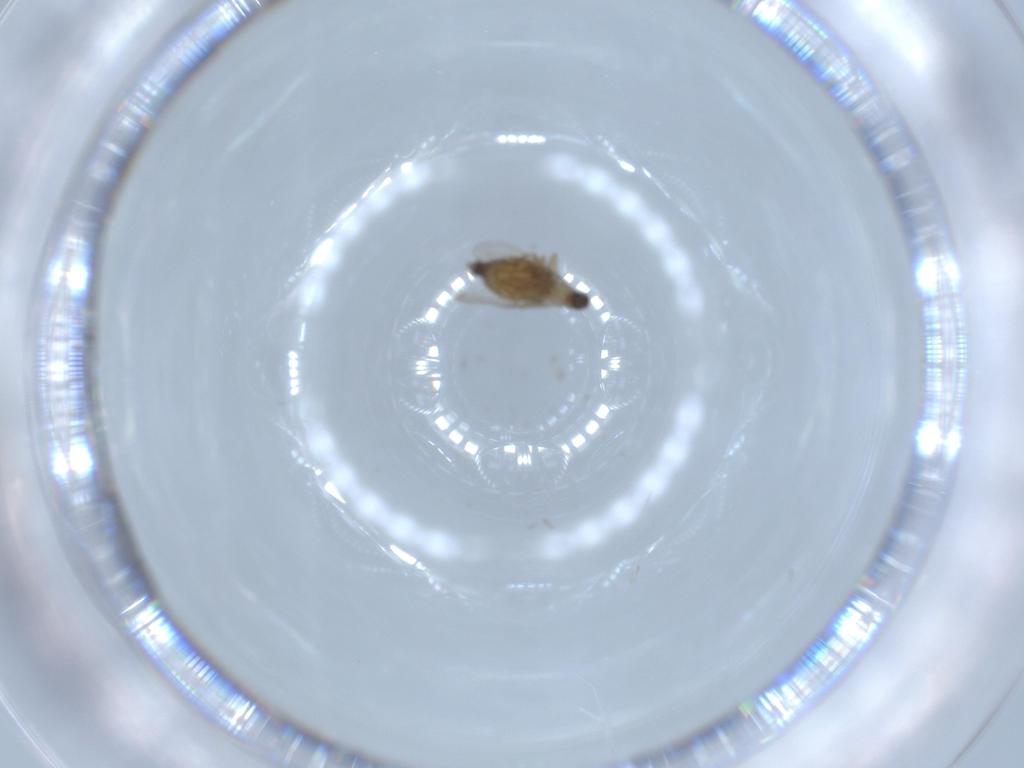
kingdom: Animalia
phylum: Arthropoda
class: Insecta
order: Diptera
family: Phoridae
